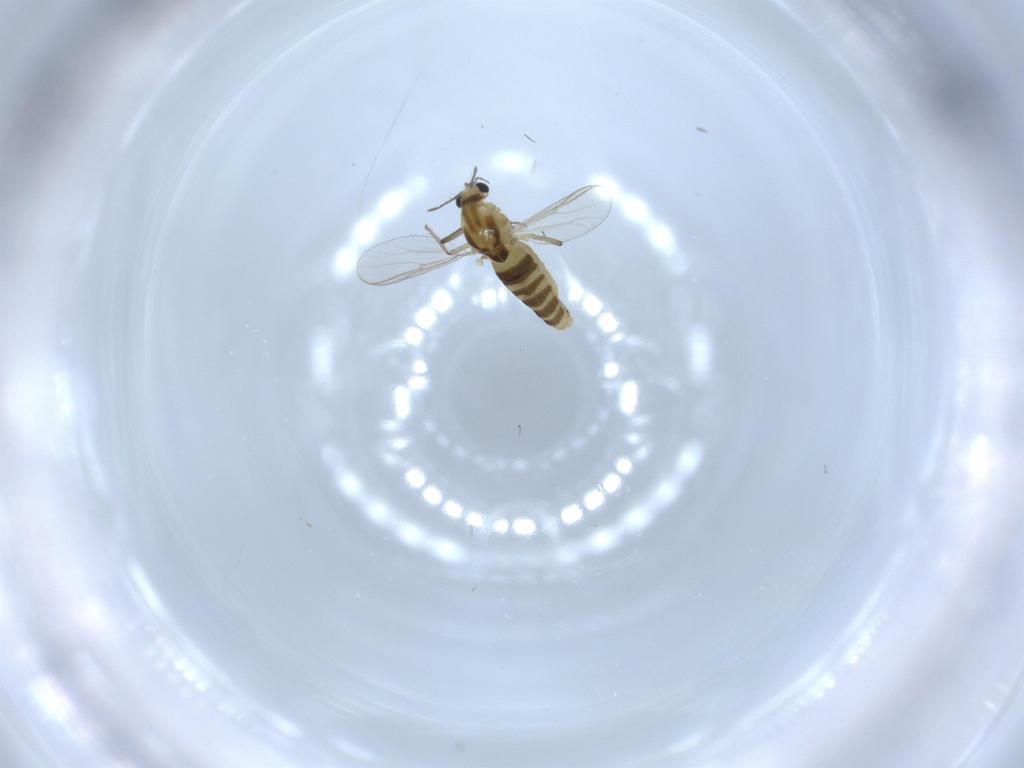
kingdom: Animalia
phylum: Arthropoda
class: Insecta
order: Diptera
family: Chironomidae
